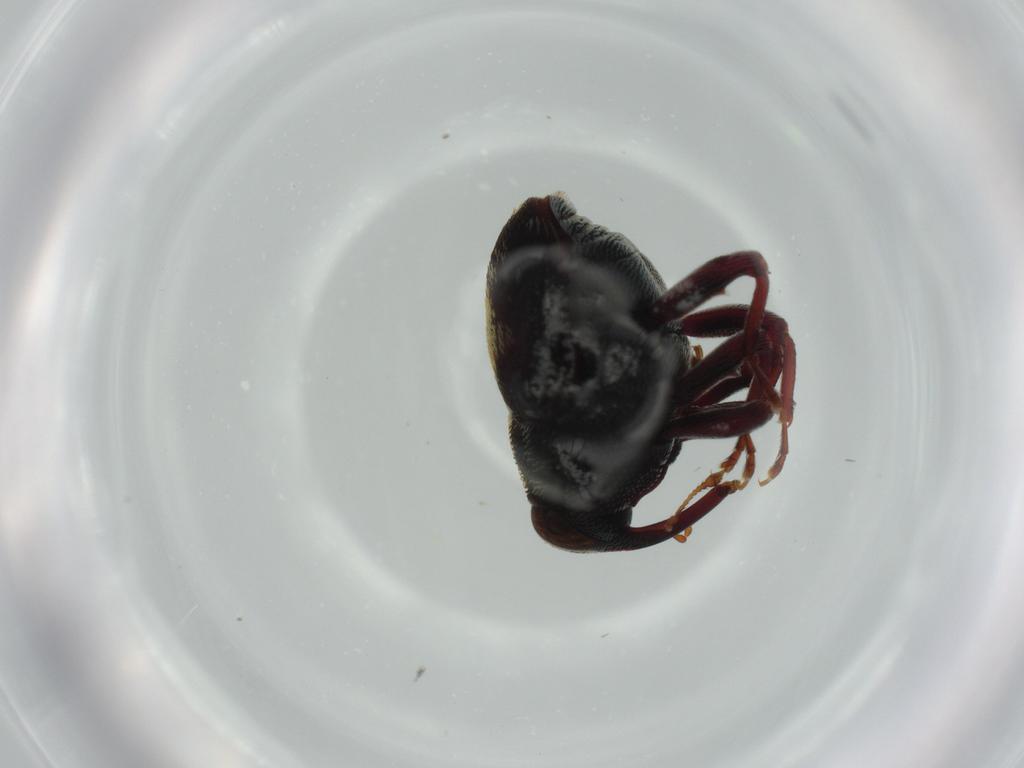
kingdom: Animalia
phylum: Arthropoda
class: Insecta
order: Coleoptera
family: Curculionidae
